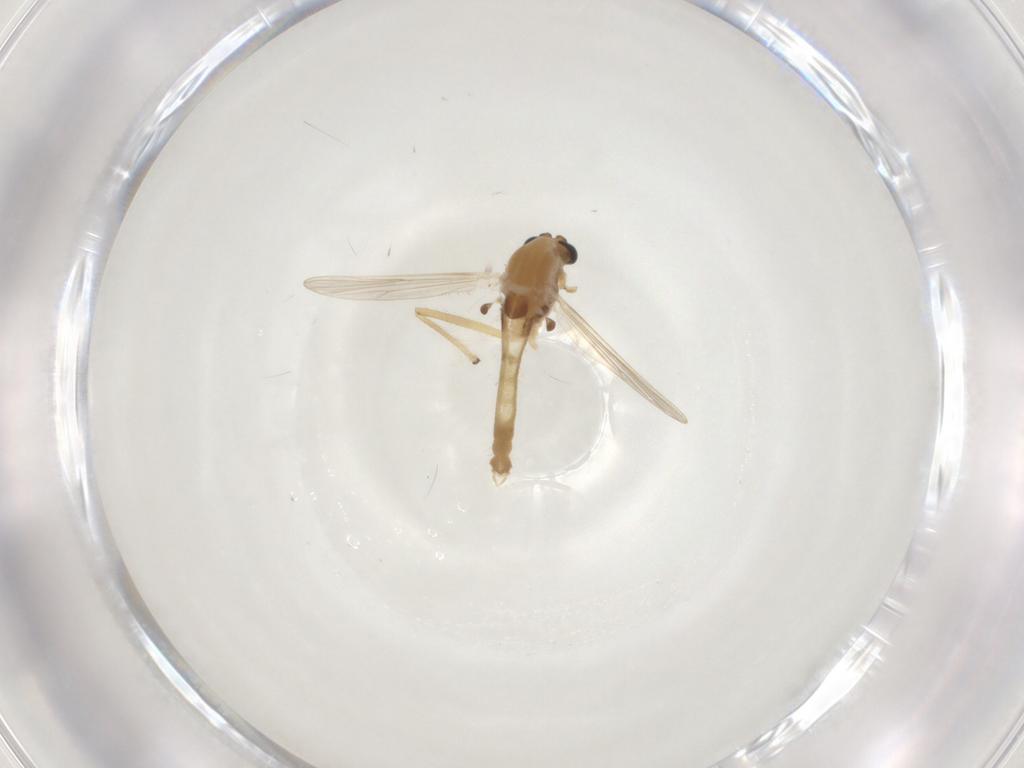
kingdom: Animalia
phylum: Arthropoda
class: Insecta
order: Diptera
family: Chironomidae
